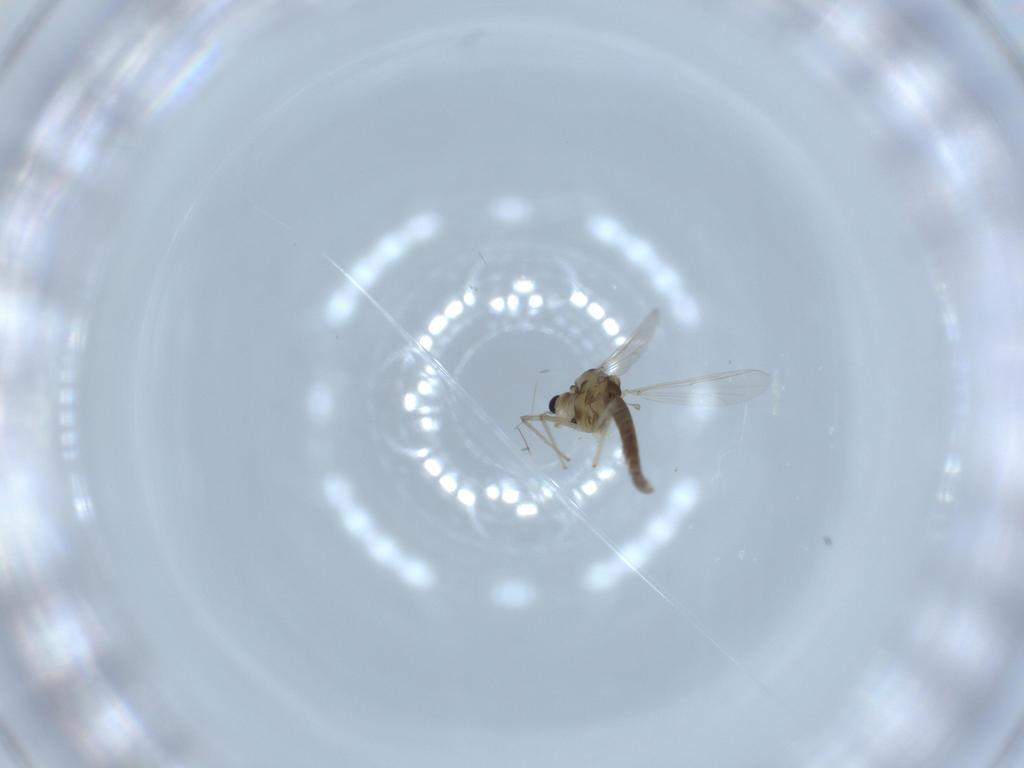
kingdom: Animalia
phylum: Arthropoda
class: Insecta
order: Diptera
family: Chironomidae
